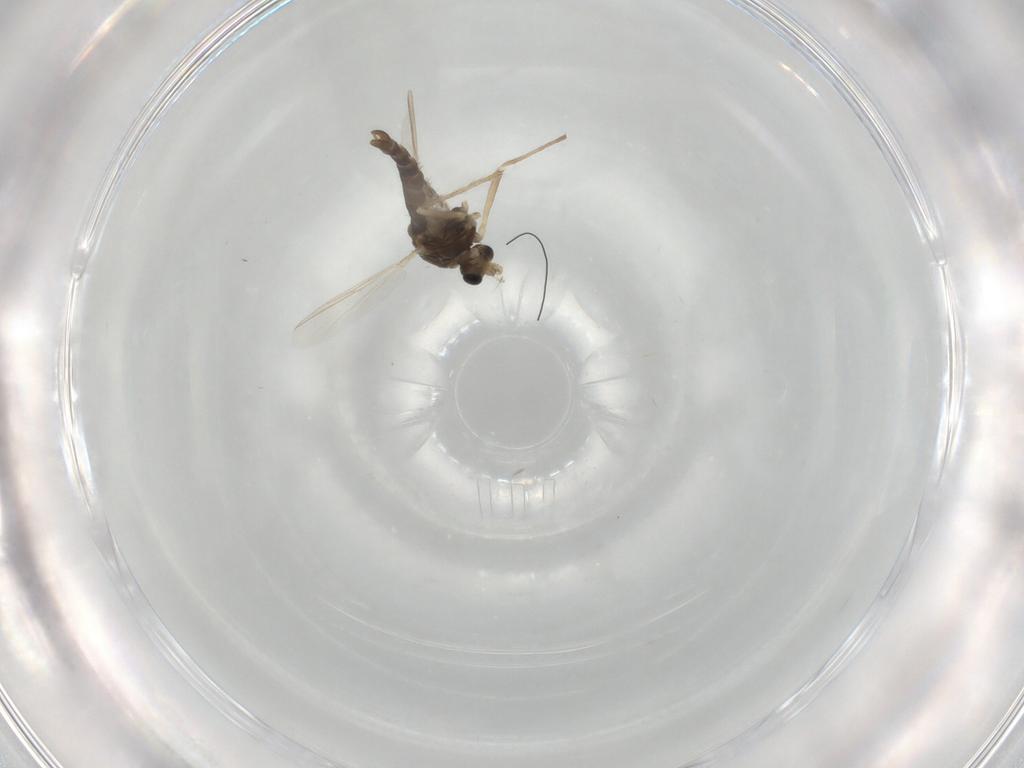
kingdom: Animalia
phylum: Arthropoda
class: Insecta
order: Diptera
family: Chironomidae
